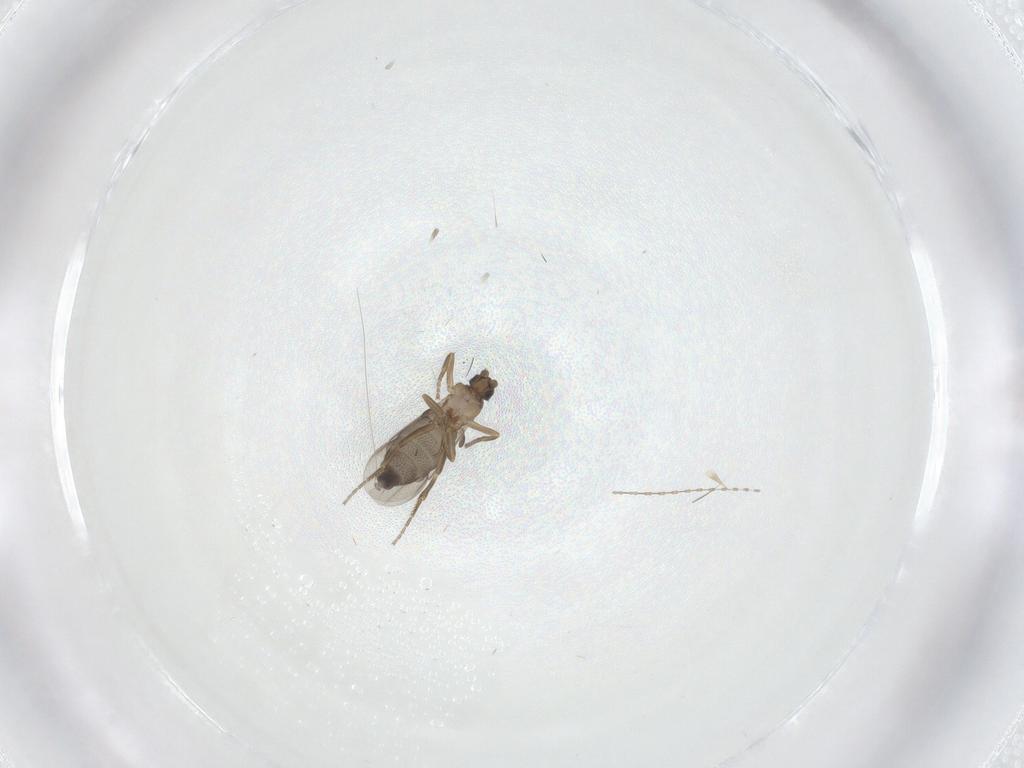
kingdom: Animalia
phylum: Arthropoda
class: Insecta
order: Diptera
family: Phoridae
